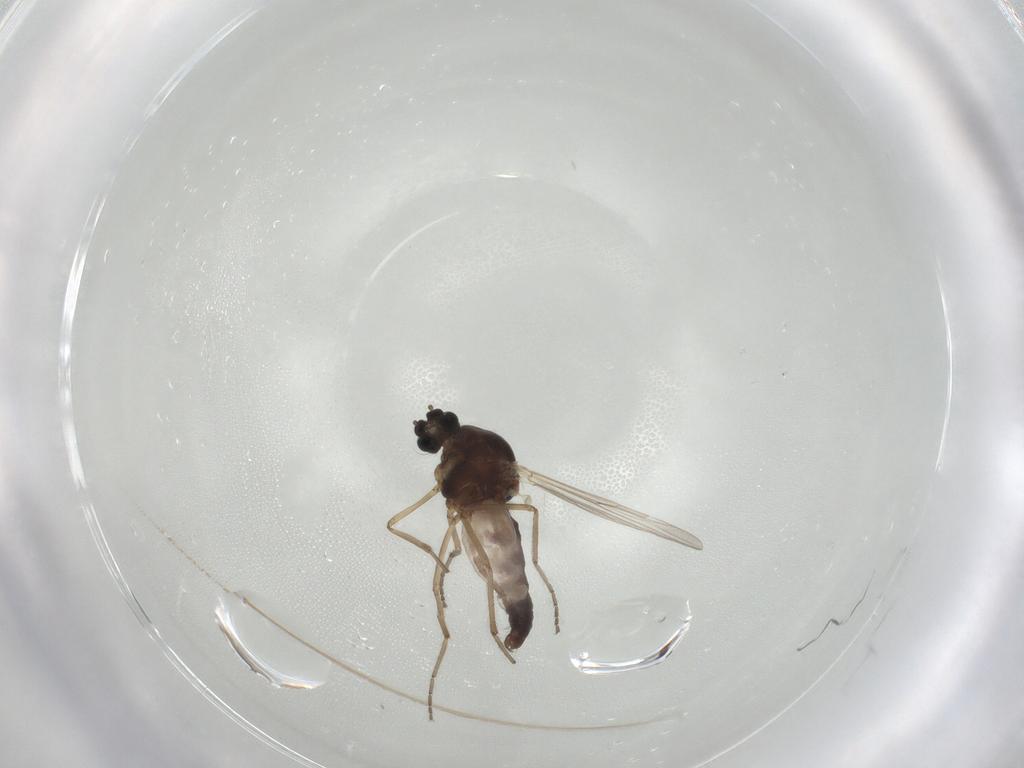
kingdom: Animalia
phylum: Arthropoda
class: Insecta
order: Diptera
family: Ceratopogonidae
